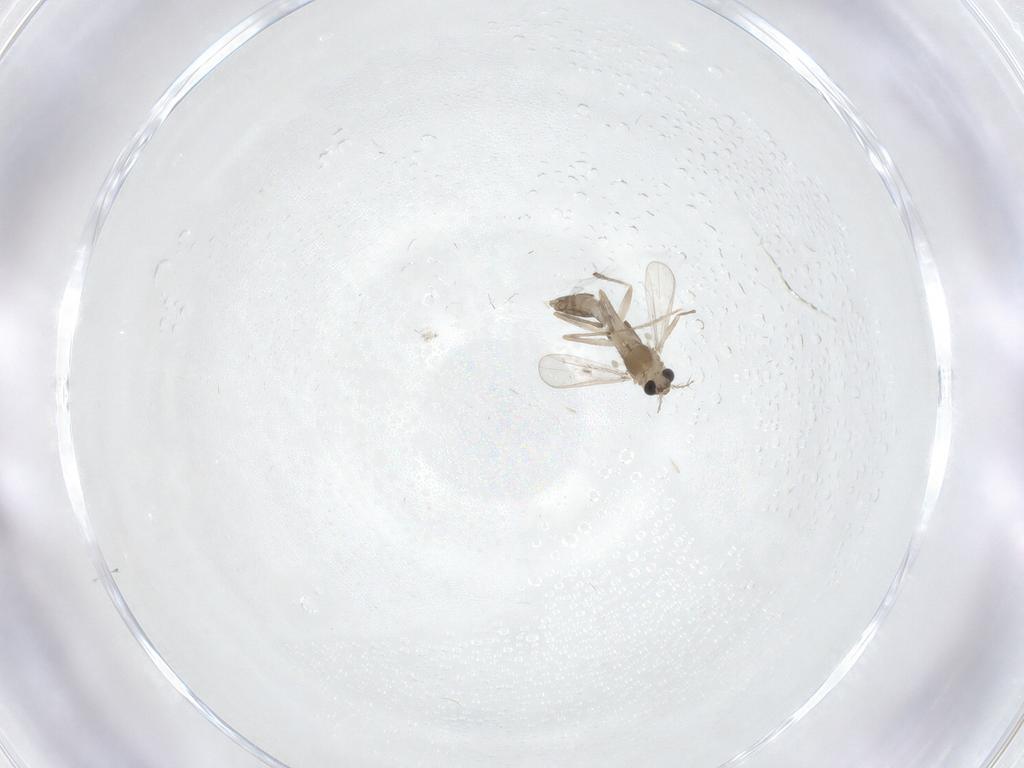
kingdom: Animalia
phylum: Arthropoda
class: Insecta
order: Diptera
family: Chironomidae
